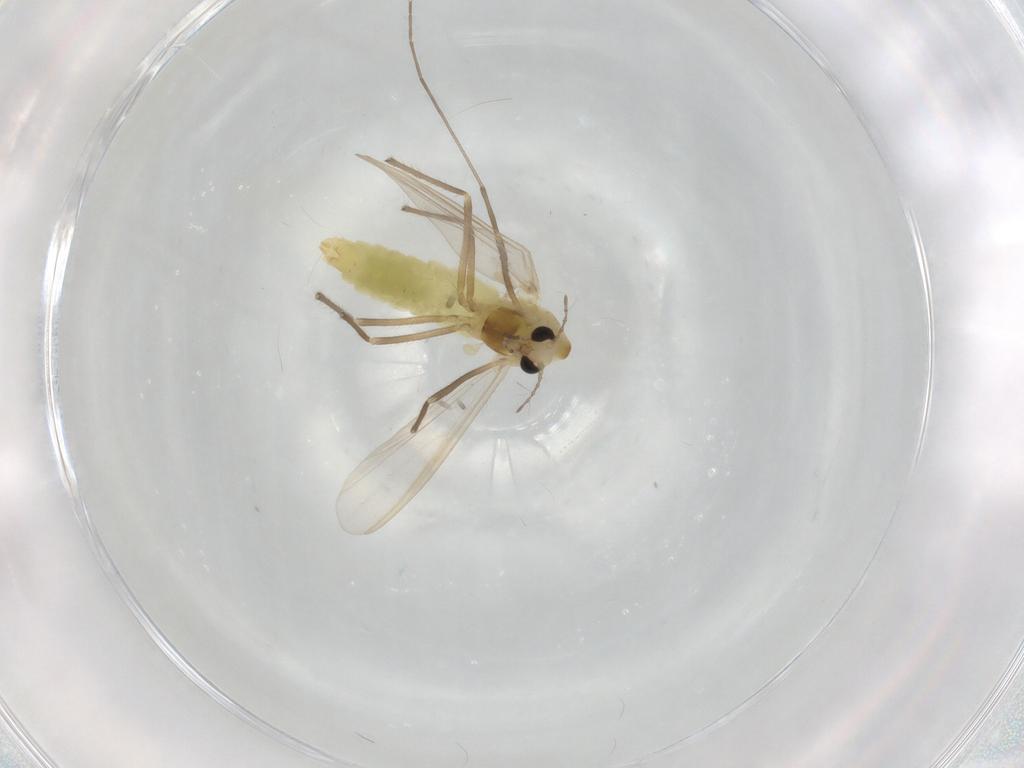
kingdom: Animalia
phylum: Arthropoda
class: Insecta
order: Diptera
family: Chironomidae
